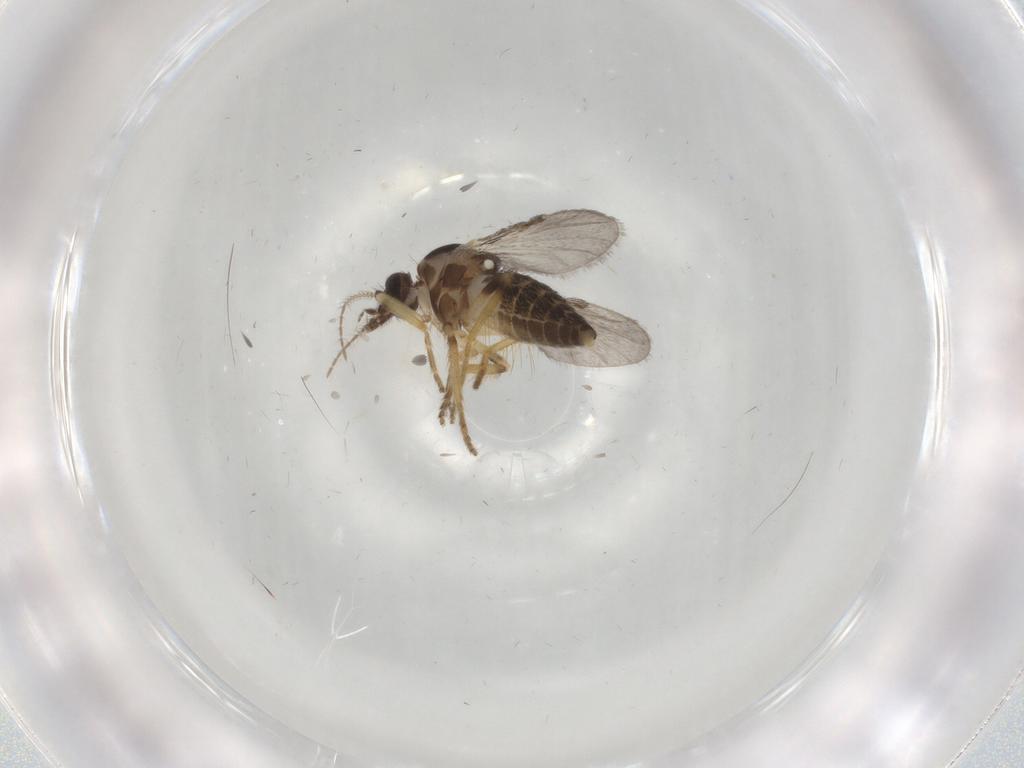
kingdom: Animalia
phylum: Arthropoda
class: Insecta
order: Diptera
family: Ceratopogonidae
